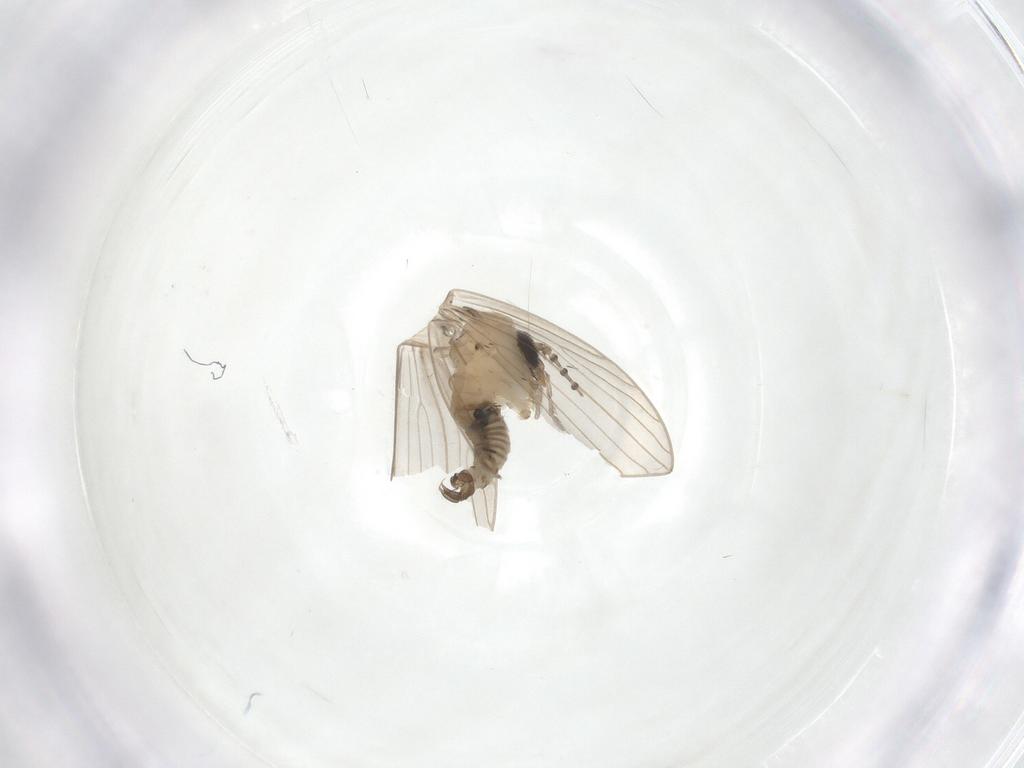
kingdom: Animalia
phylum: Arthropoda
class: Insecta
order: Diptera
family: Psychodidae
